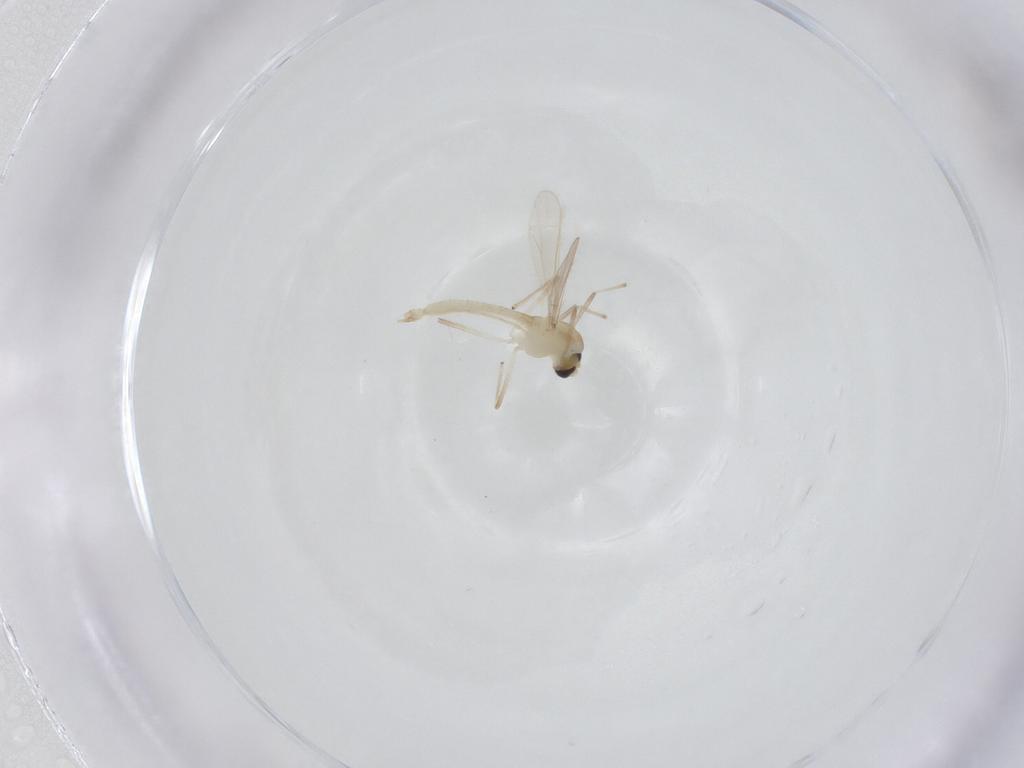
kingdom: Animalia
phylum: Arthropoda
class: Insecta
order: Diptera
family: Chironomidae
